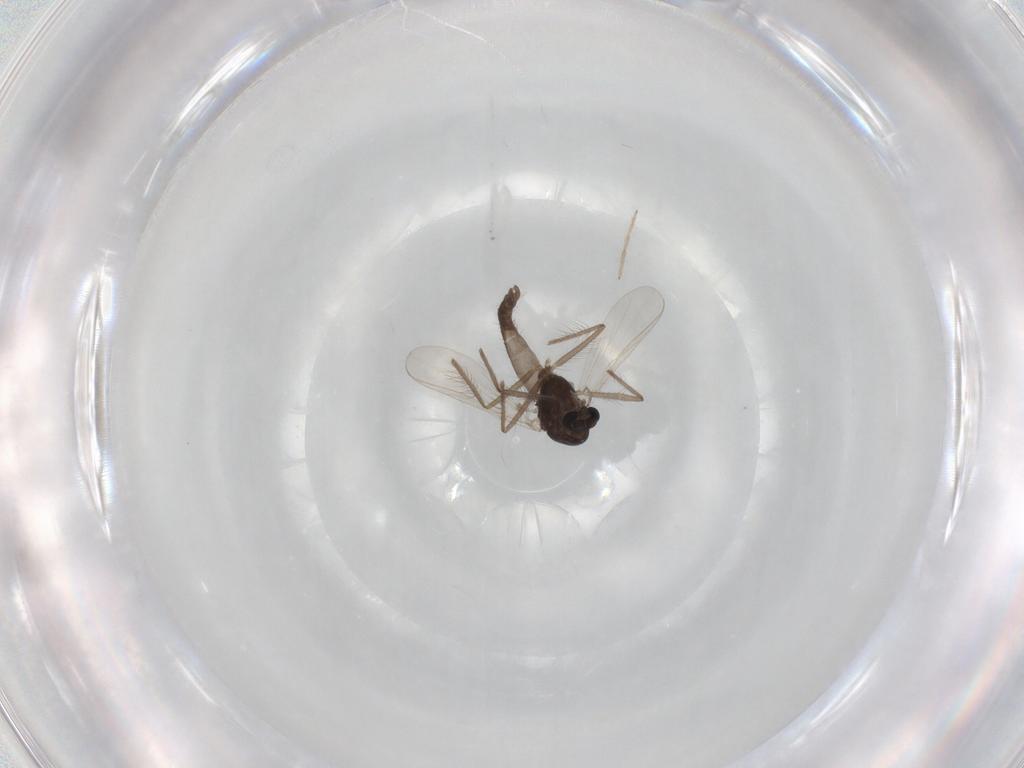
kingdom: Animalia
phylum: Arthropoda
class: Insecta
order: Diptera
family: Chironomidae
